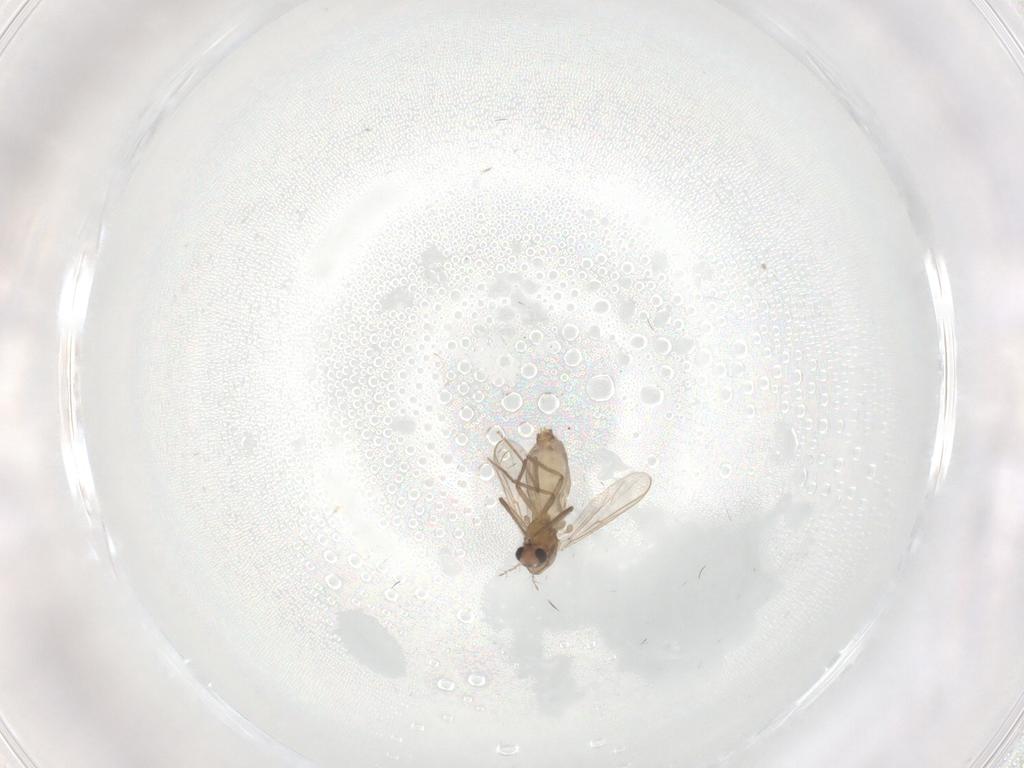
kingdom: Animalia
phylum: Arthropoda
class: Insecta
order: Diptera
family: Chironomidae
